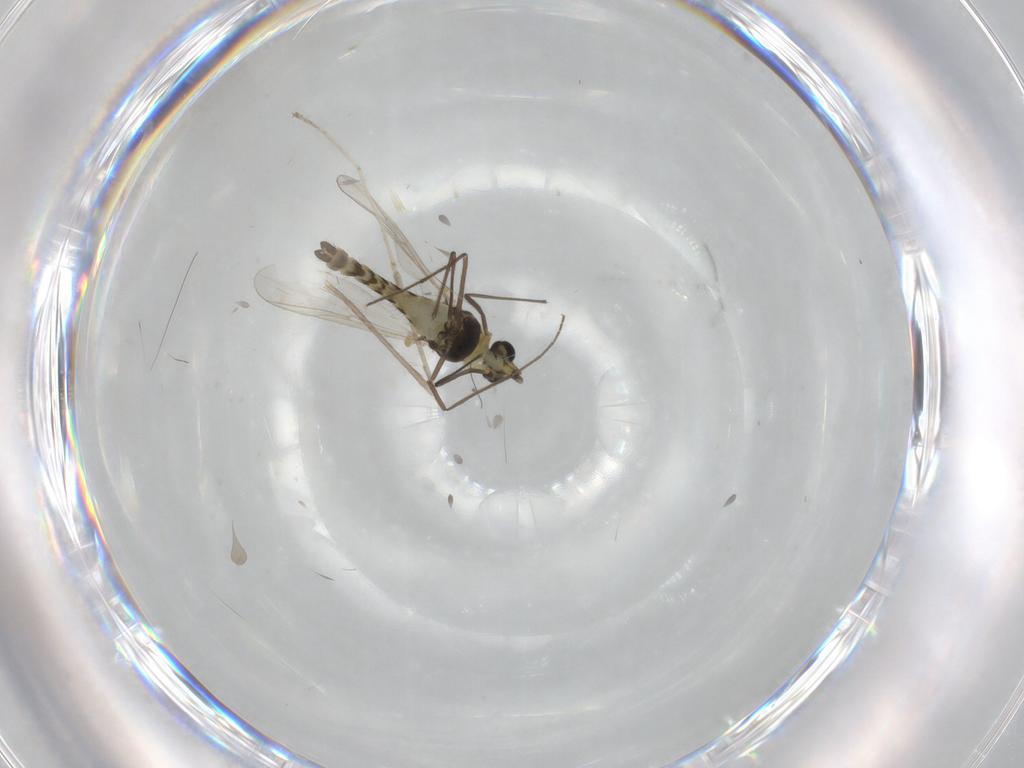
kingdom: Animalia
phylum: Arthropoda
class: Insecta
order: Diptera
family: Chironomidae
